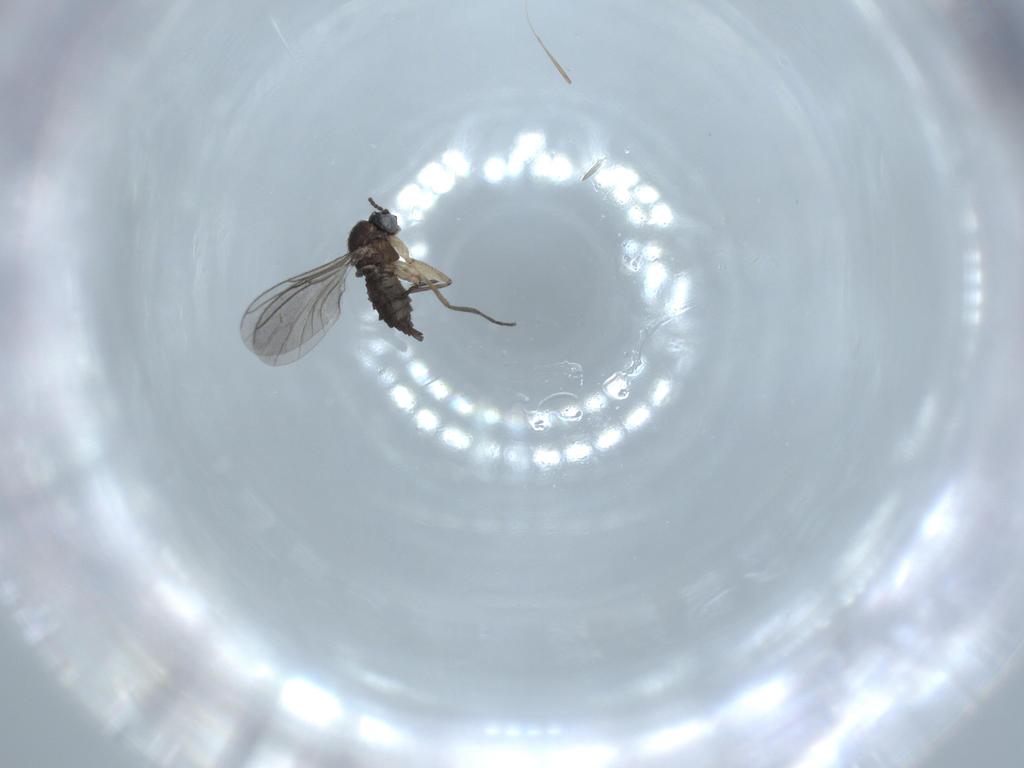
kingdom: Animalia
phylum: Arthropoda
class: Insecta
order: Diptera
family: Sciaridae
